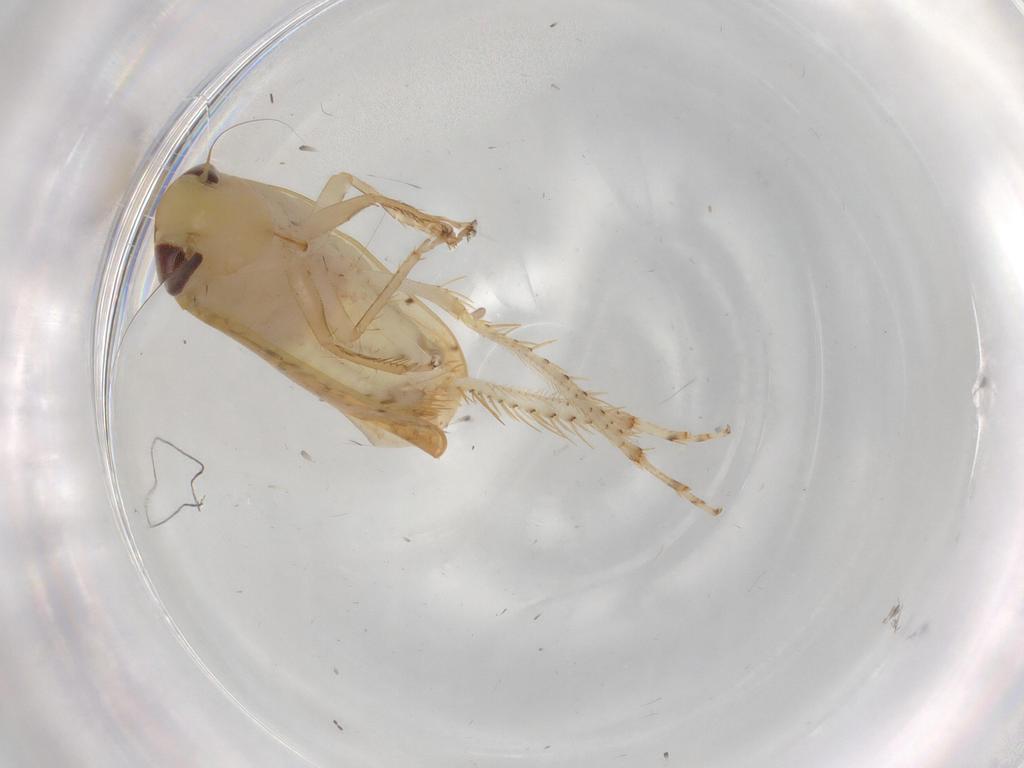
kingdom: Animalia
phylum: Arthropoda
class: Insecta
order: Hemiptera
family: Cicadellidae
